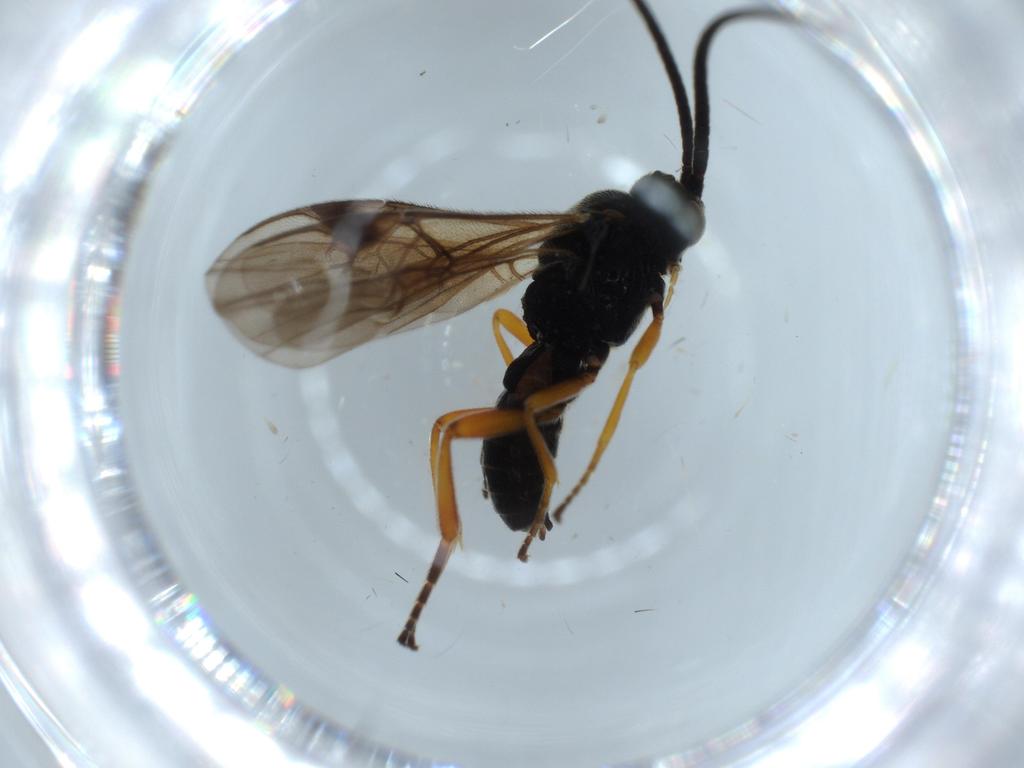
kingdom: Animalia
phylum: Arthropoda
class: Insecta
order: Hymenoptera
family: Braconidae
